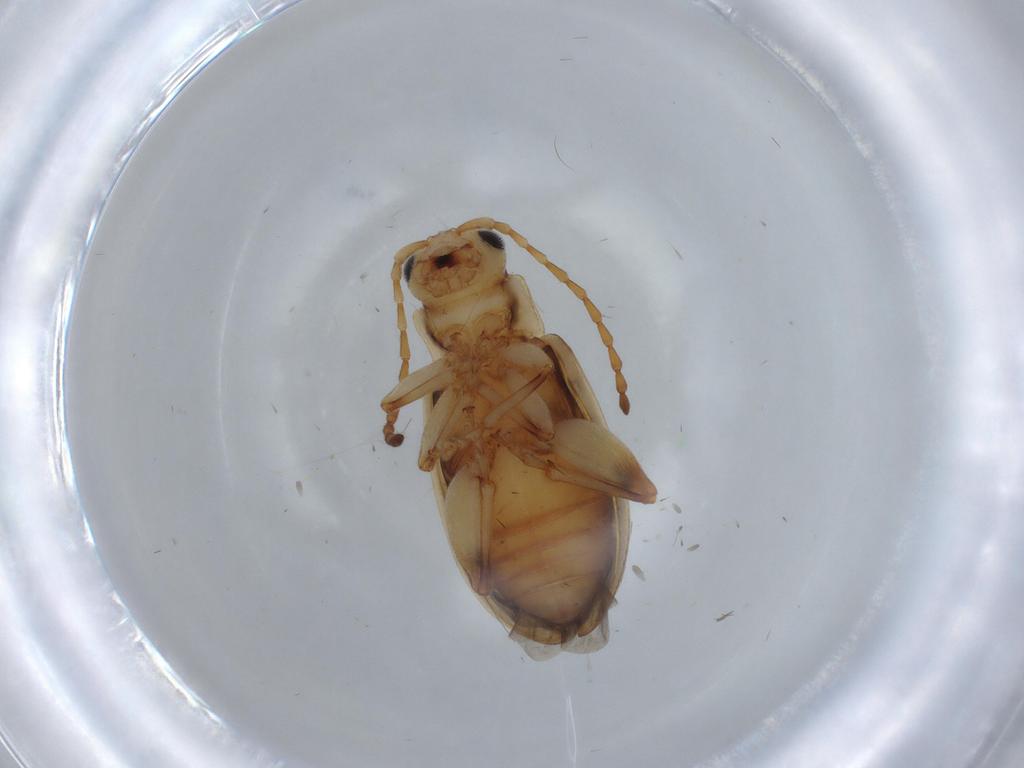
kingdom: Animalia
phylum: Arthropoda
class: Insecta
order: Coleoptera
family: Chrysomelidae
